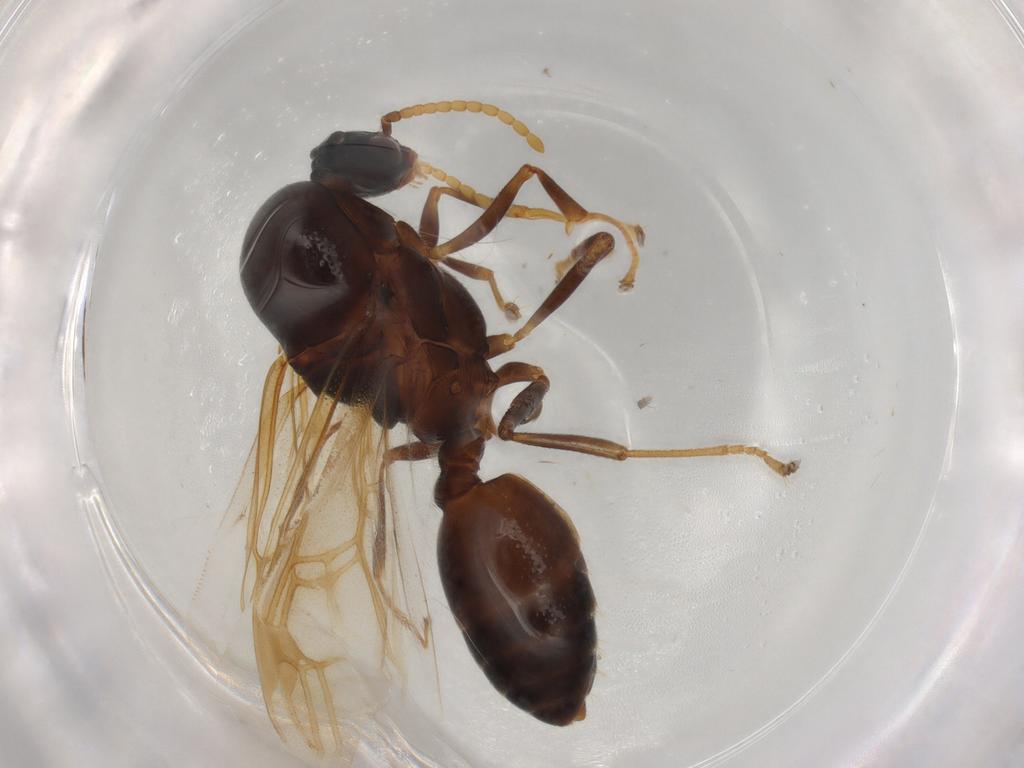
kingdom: Animalia
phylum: Arthropoda
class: Insecta
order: Hymenoptera
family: Formicidae
